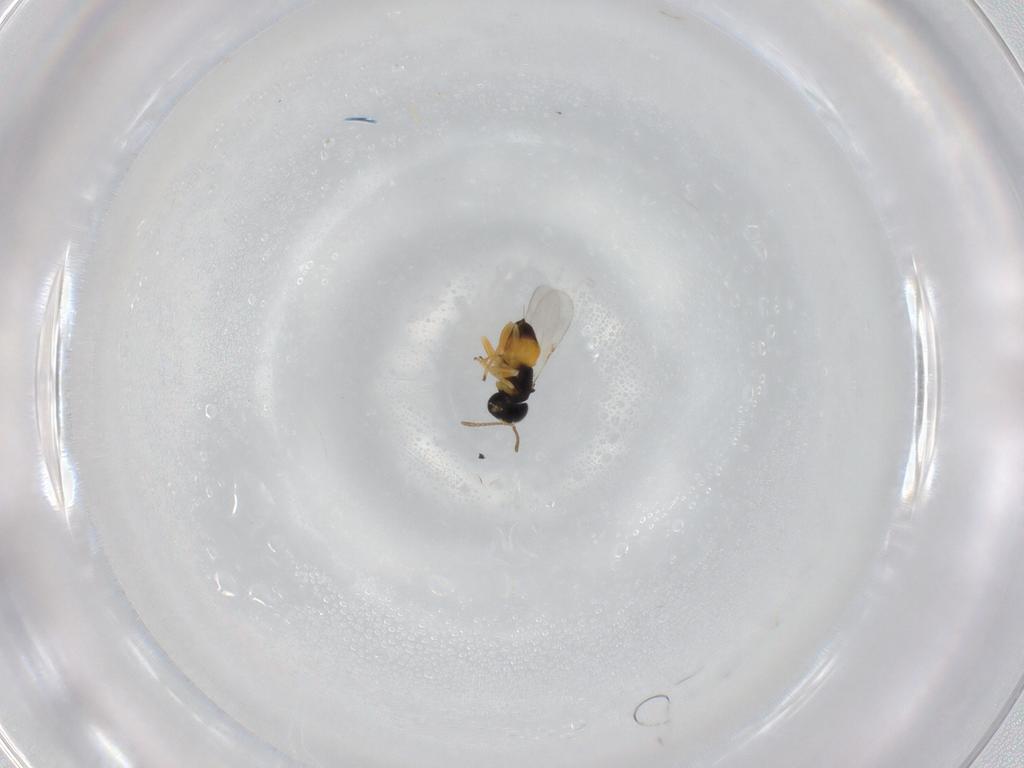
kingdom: Animalia
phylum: Arthropoda
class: Insecta
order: Hymenoptera
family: Encyrtidae
